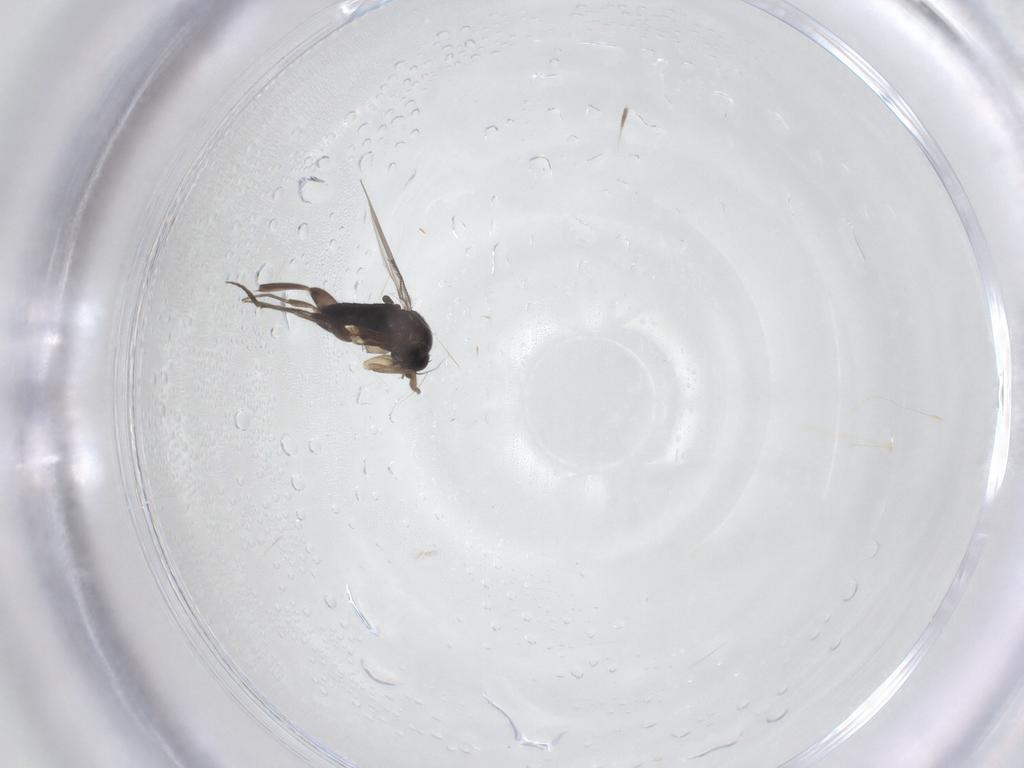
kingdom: Animalia
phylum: Arthropoda
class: Insecta
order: Diptera
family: Phoridae
